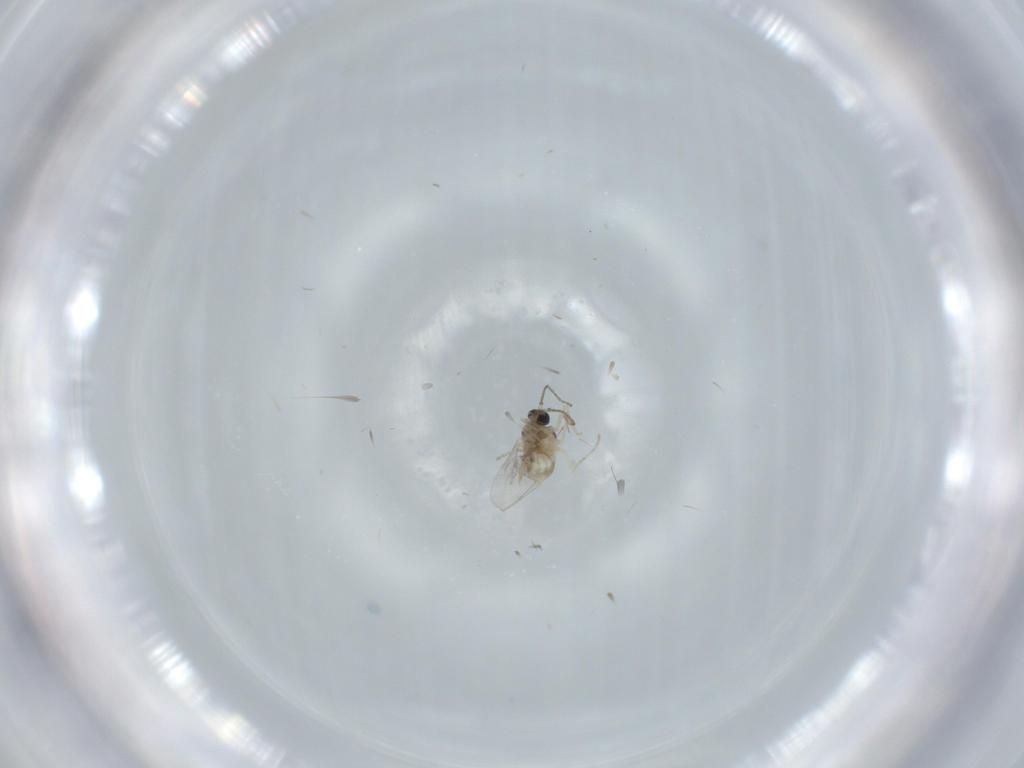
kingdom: Animalia
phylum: Arthropoda
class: Insecta
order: Diptera
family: Cecidomyiidae
